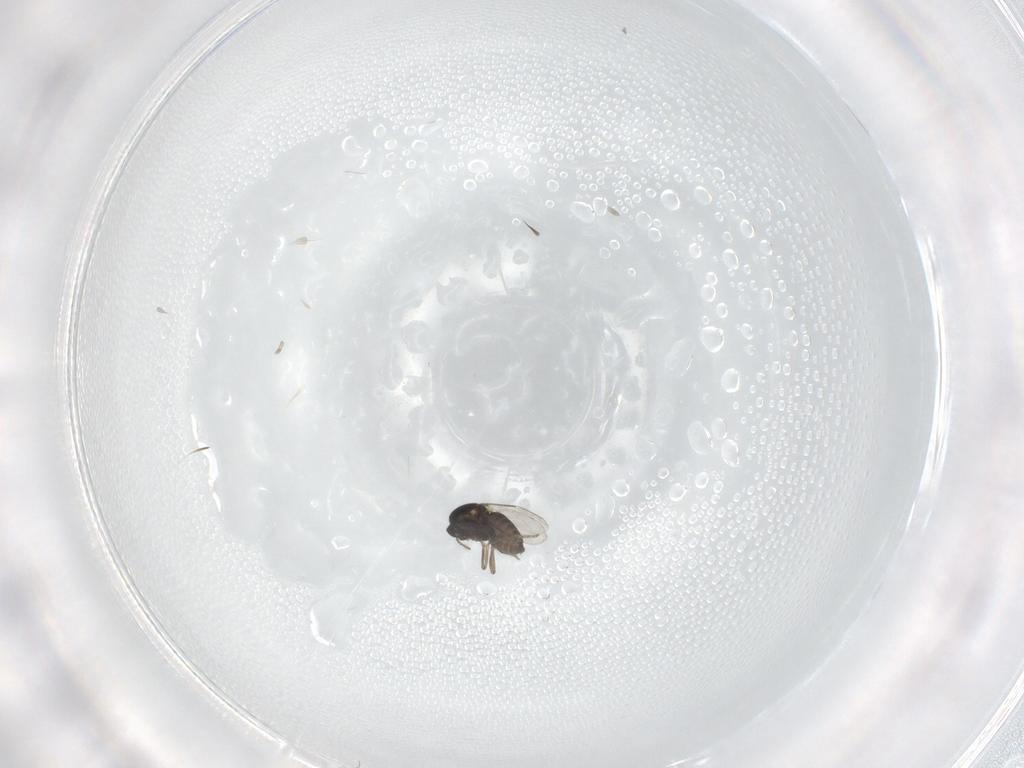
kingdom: Animalia
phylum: Arthropoda
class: Insecta
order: Diptera
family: Ceratopogonidae
